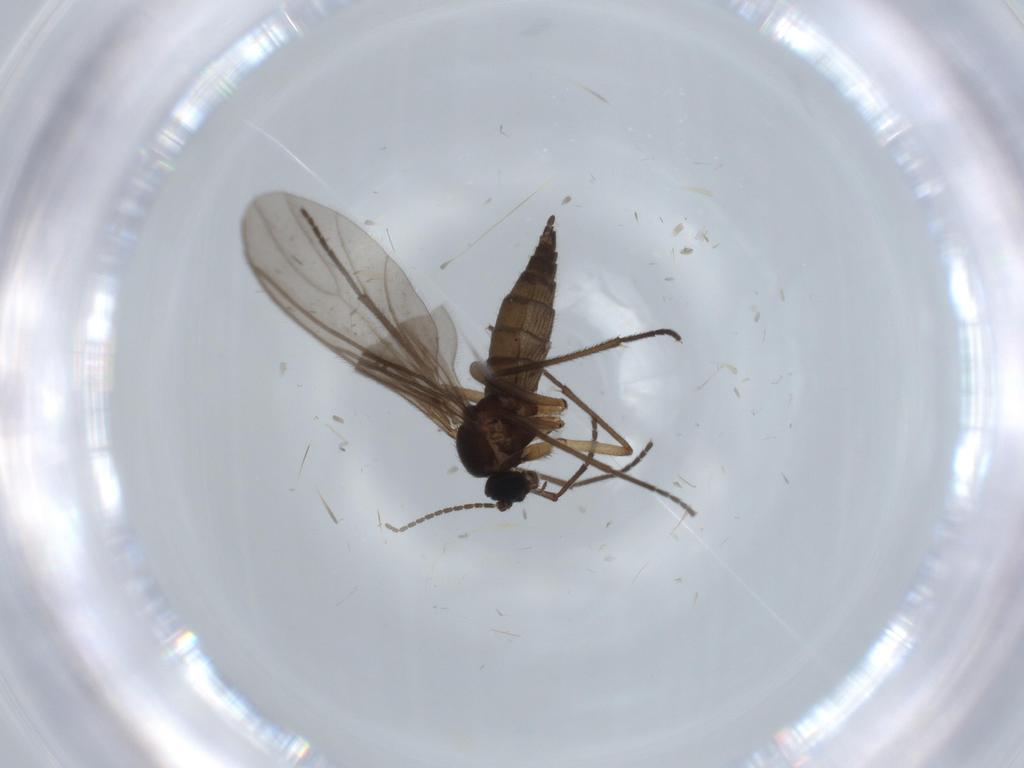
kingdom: Animalia
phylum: Arthropoda
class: Insecta
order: Diptera
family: Sciaridae
